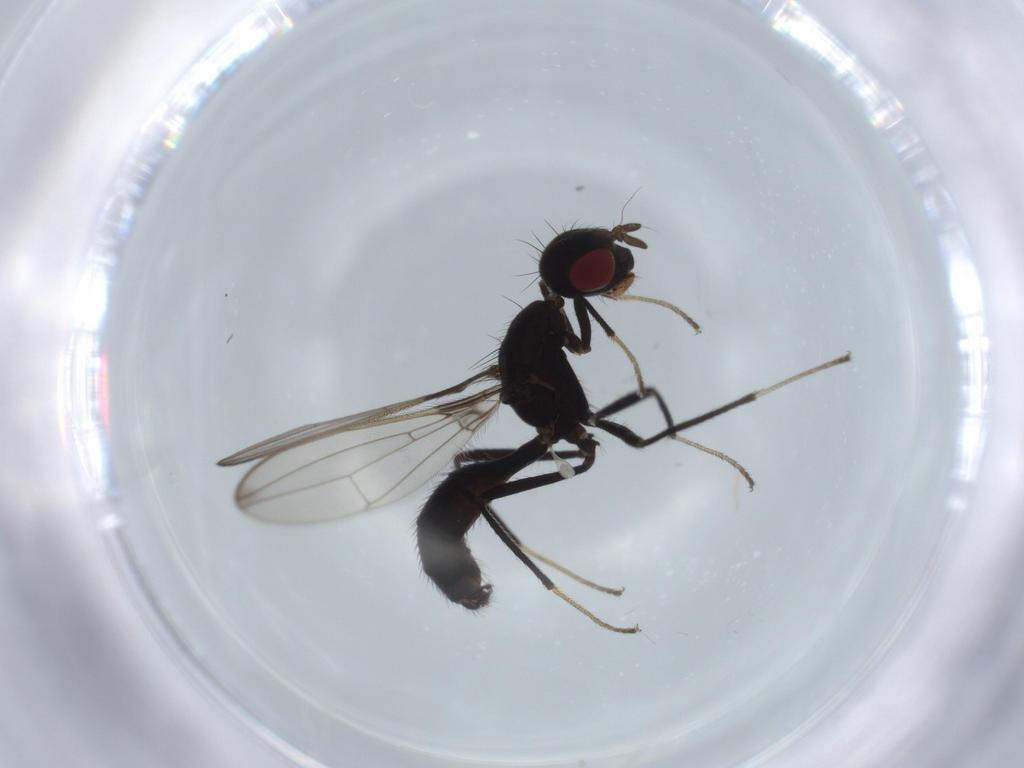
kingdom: Animalia
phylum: Arthropoda
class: Insecta
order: Diptera
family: Richardiidae
